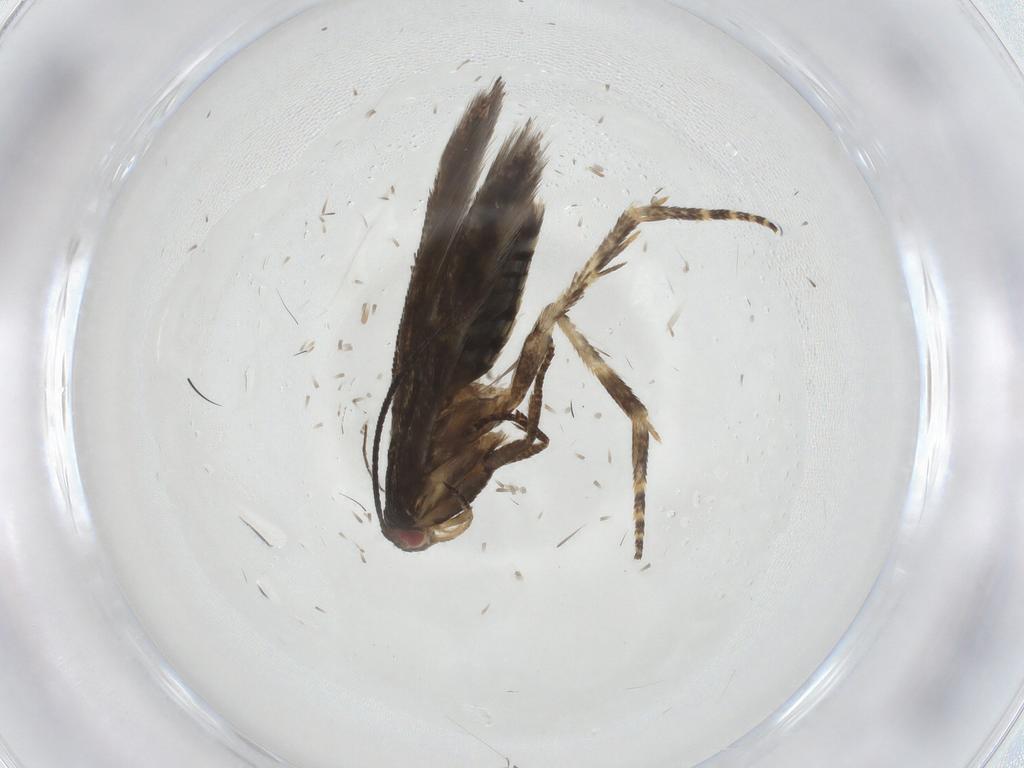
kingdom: Animalia
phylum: Arthropoda
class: Insecta
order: Lepidoptera
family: Momphidae
